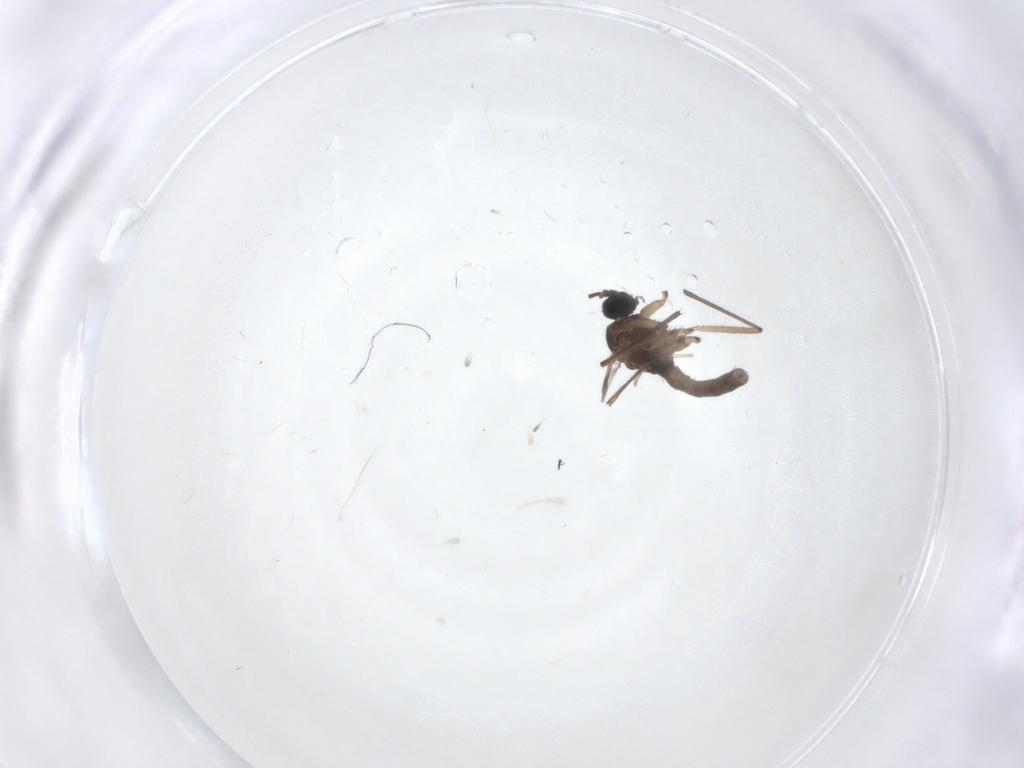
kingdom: Animalia
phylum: Arthropoda
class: Insecta
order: Diptera
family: Sciaridae
